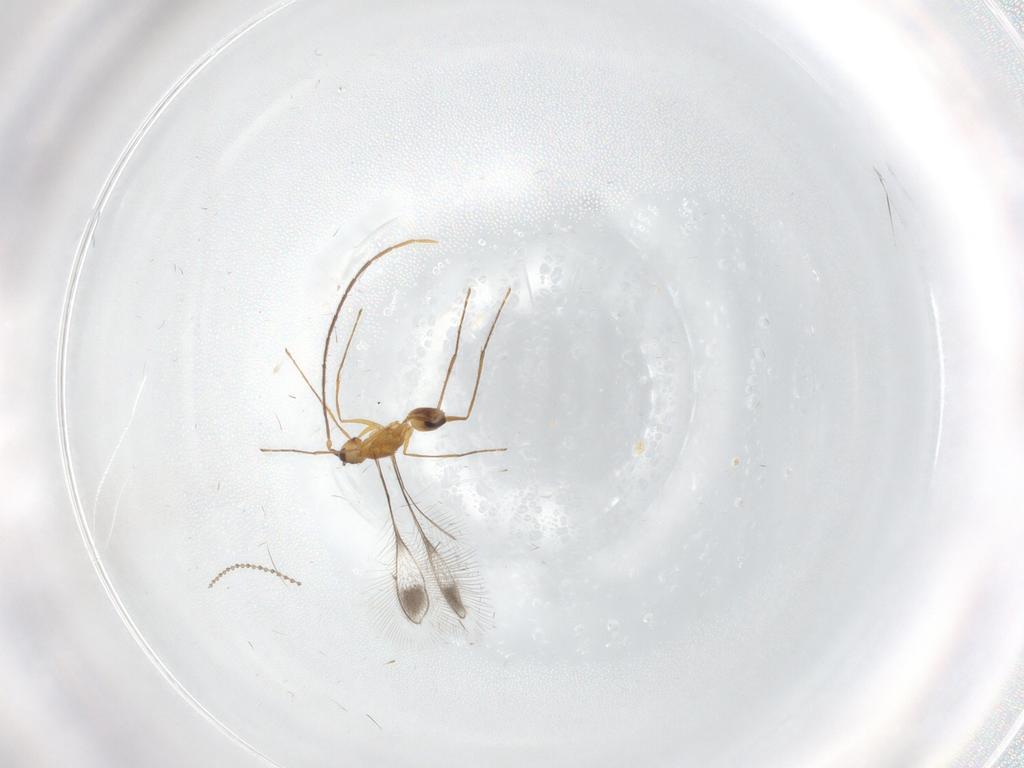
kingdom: Animalia
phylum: Arthropoda
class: Insecta
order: Hymenoptera
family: Mymaridae
